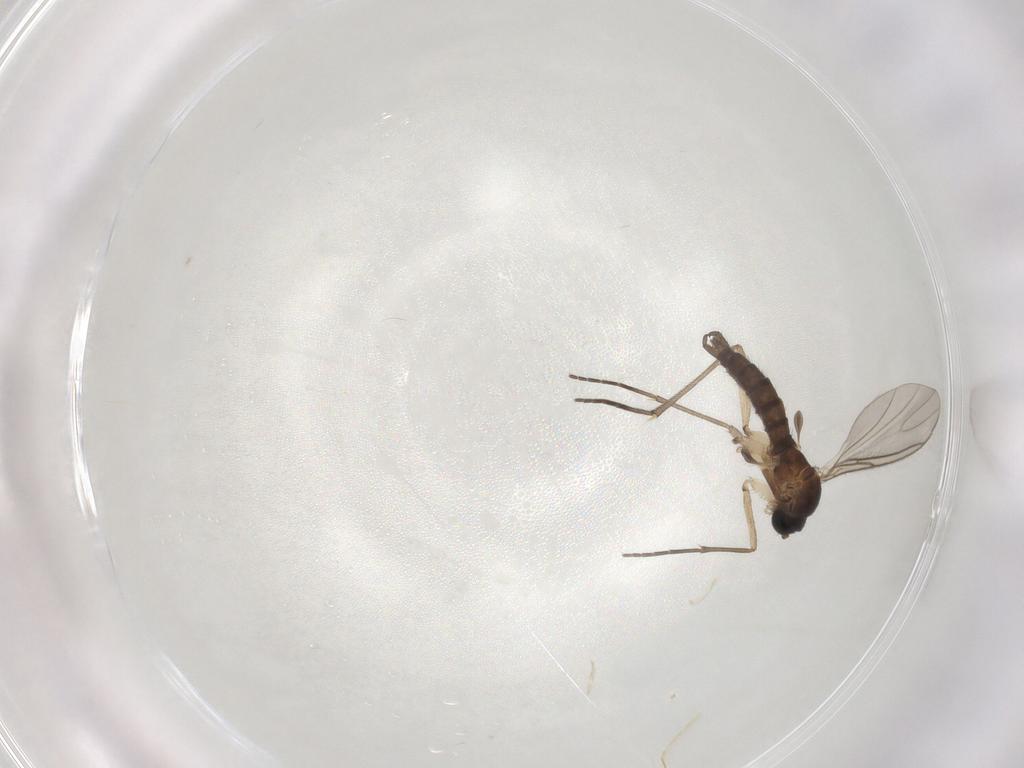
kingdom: Animalia
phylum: Arthropoda
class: Insecta
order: Diptera
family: Sciaridae
